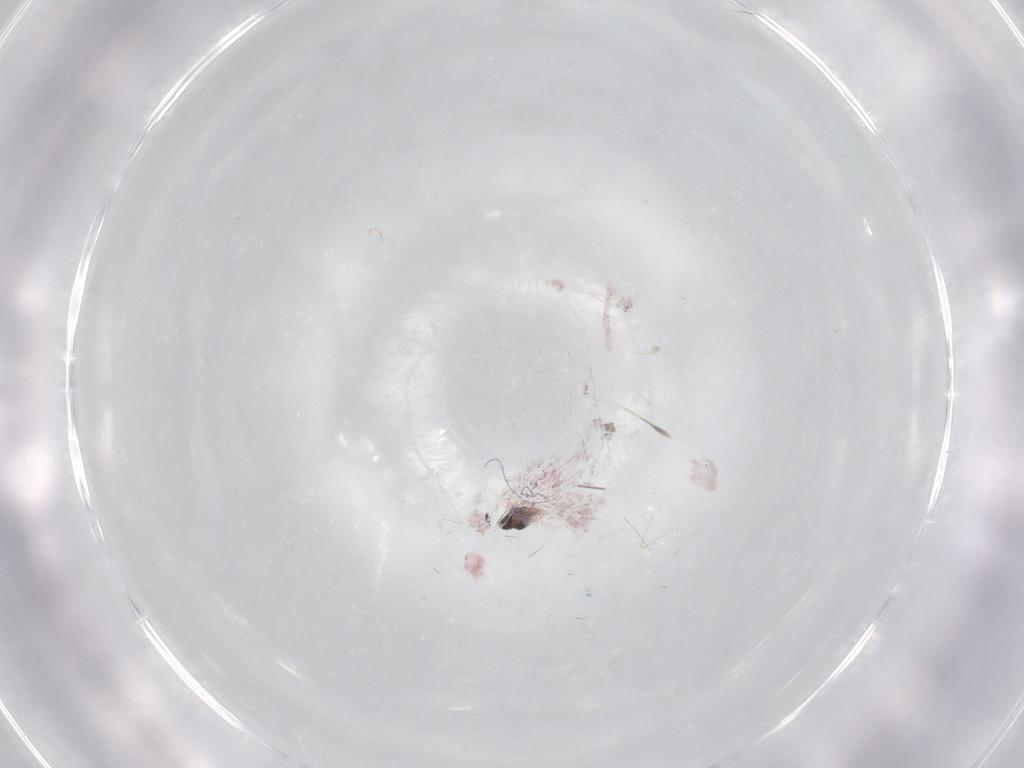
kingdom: Animalia
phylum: Arthropoda
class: Insecta
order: Diptera
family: Cecidomyiidae
